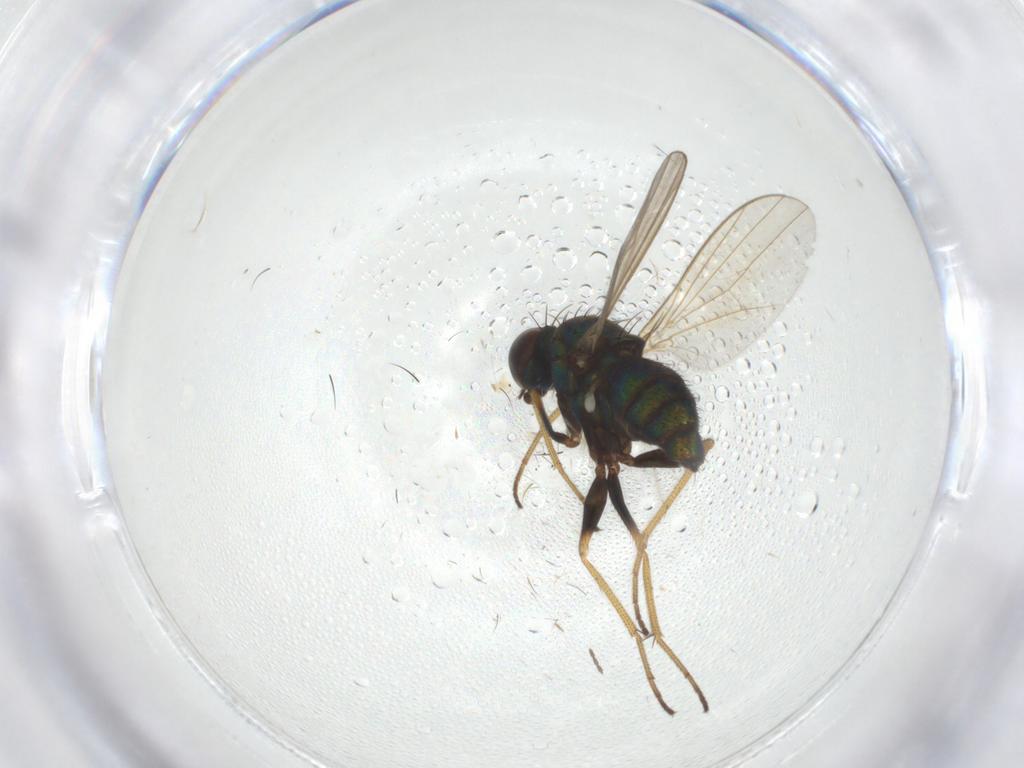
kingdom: Animalia
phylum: Arthropoda
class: Insecta
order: Diptera
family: Dolichopodidae
